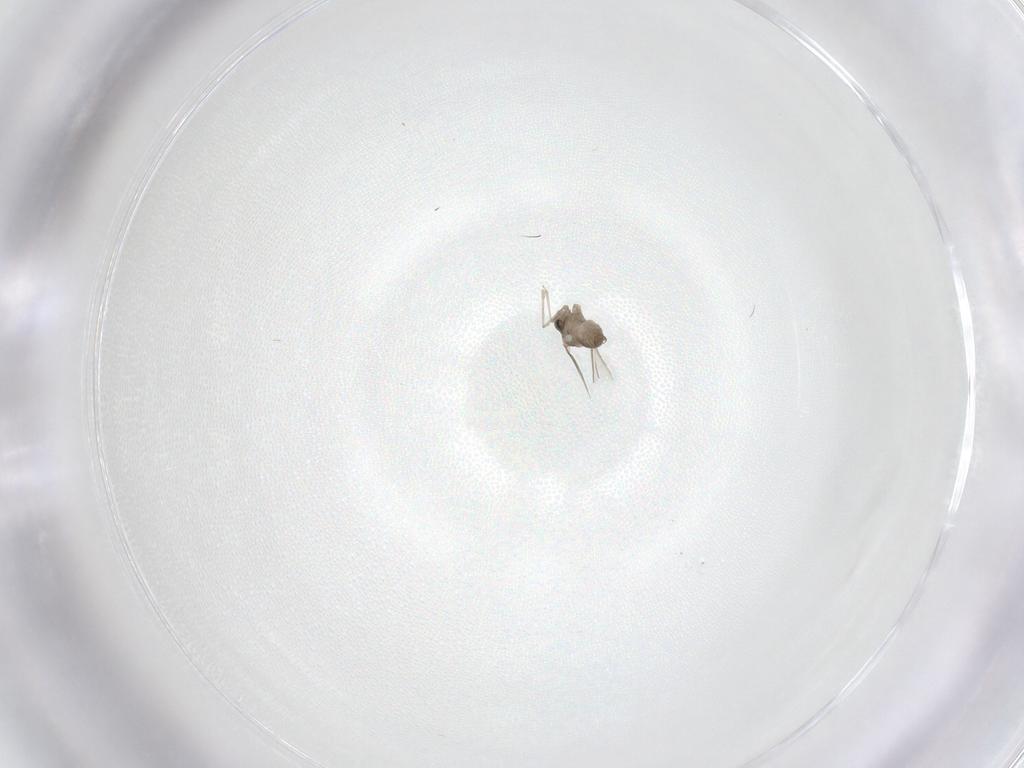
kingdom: Animalia
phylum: Arthropoda
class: Insecta
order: Diptera
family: Cecidomyiidae
